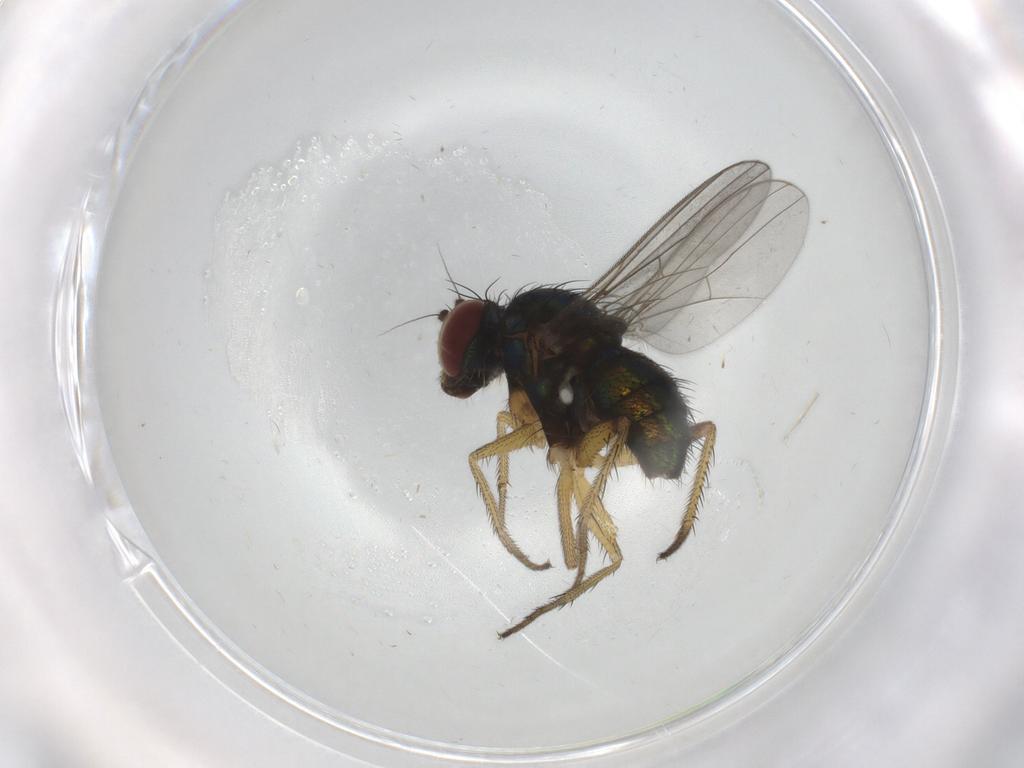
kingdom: Animalia
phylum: Arthropoda
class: Insecta
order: Diptera
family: Dolichopodidae
